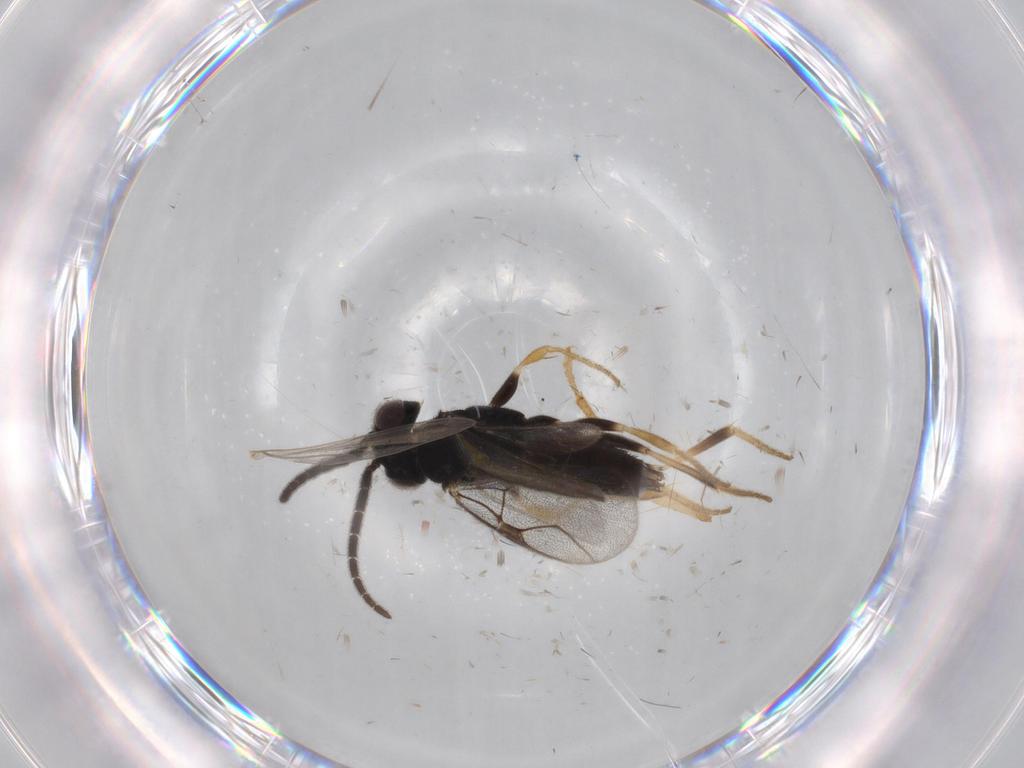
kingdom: Animalia
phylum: Arthropoda
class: Insecta
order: Hymenoptera
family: Dryinidae
